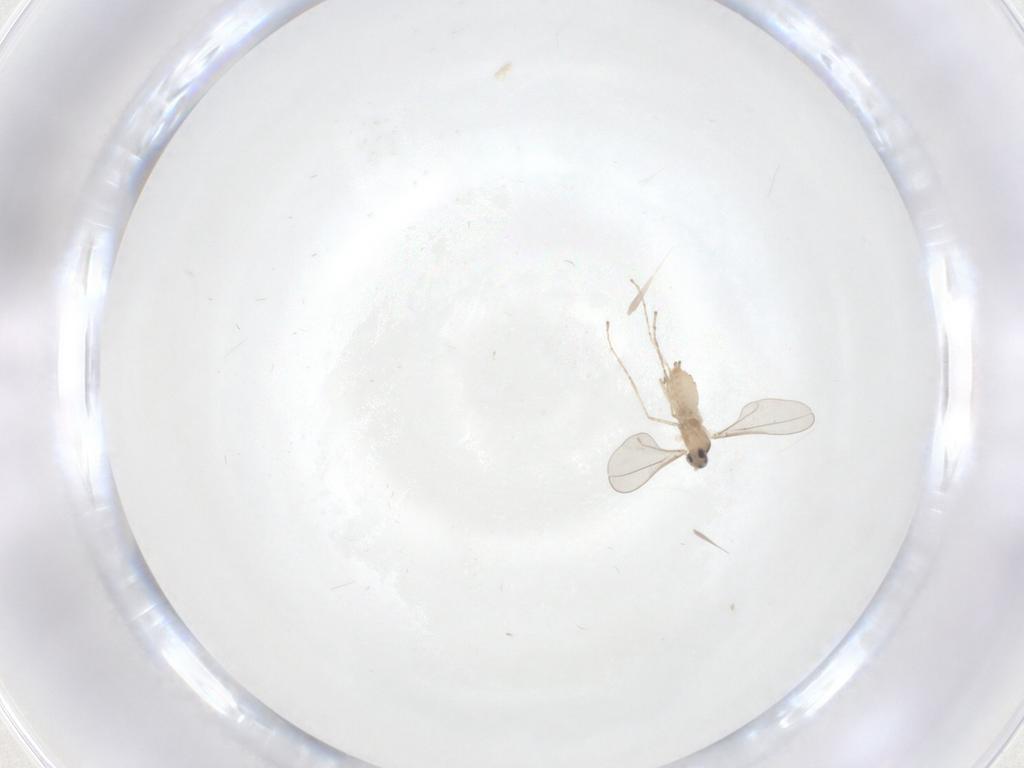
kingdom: Animalia
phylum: Arthropoda
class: Insecta
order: Diptera
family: Cecidomyiidae
